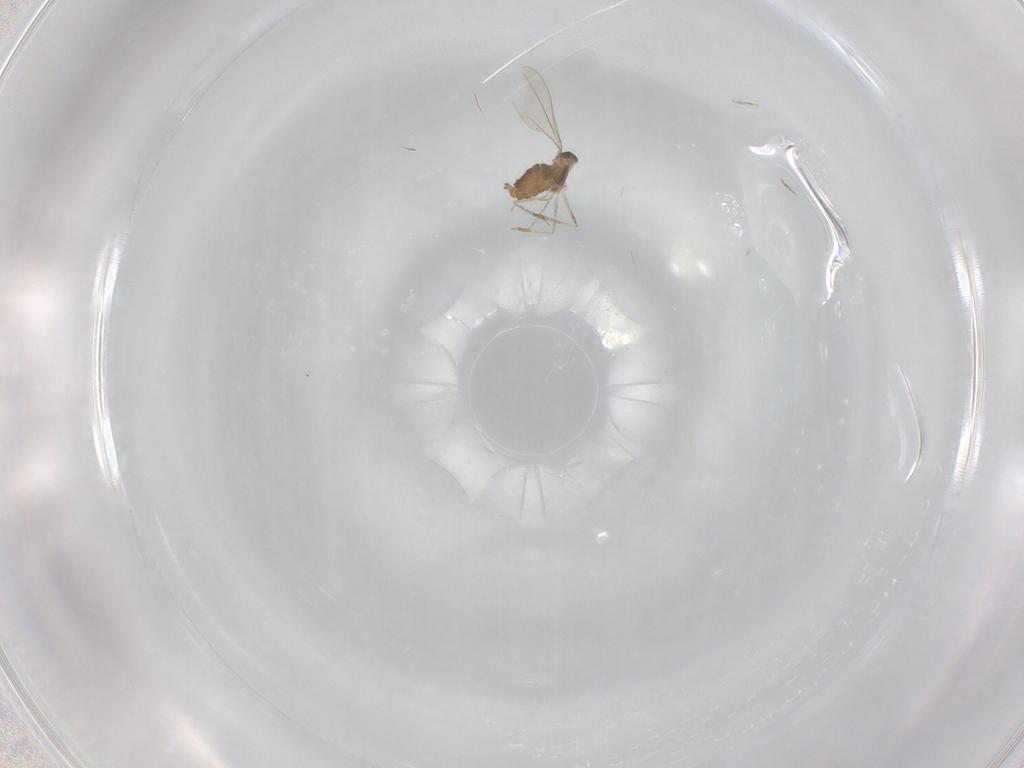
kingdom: Animalia
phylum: Arthropoda
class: Insecta
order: Diptera
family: Cecidomyiidae
